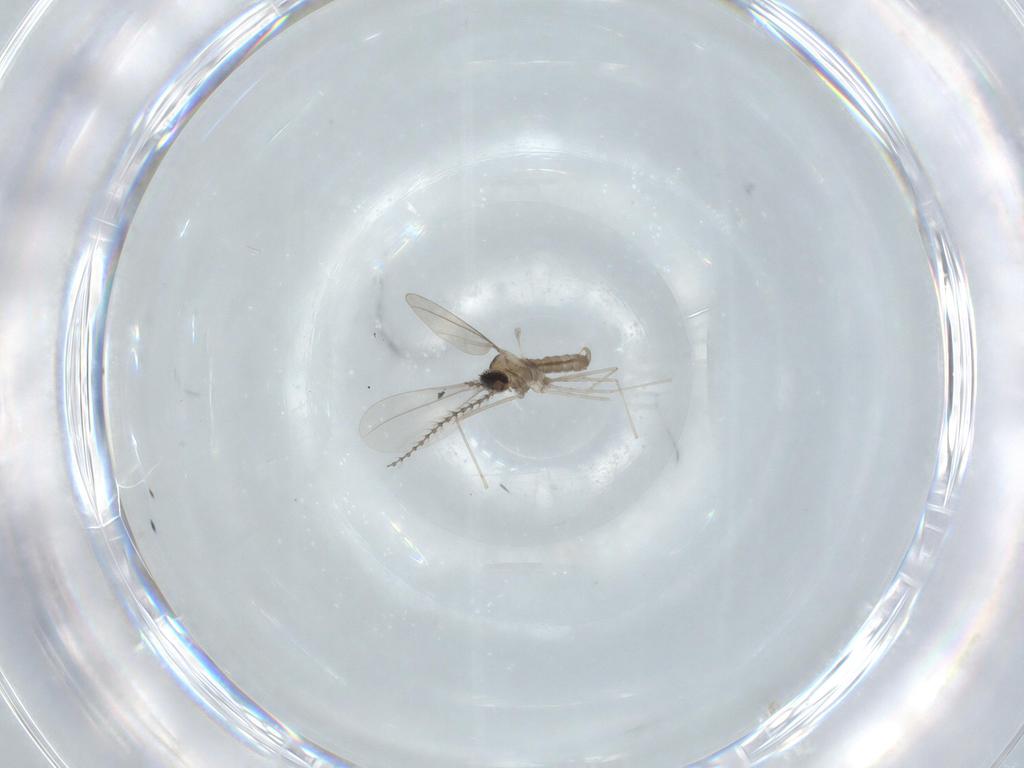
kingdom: Animalia
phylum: Arthropoda
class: Insecta
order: Diptera
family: Cecidomyiidae
